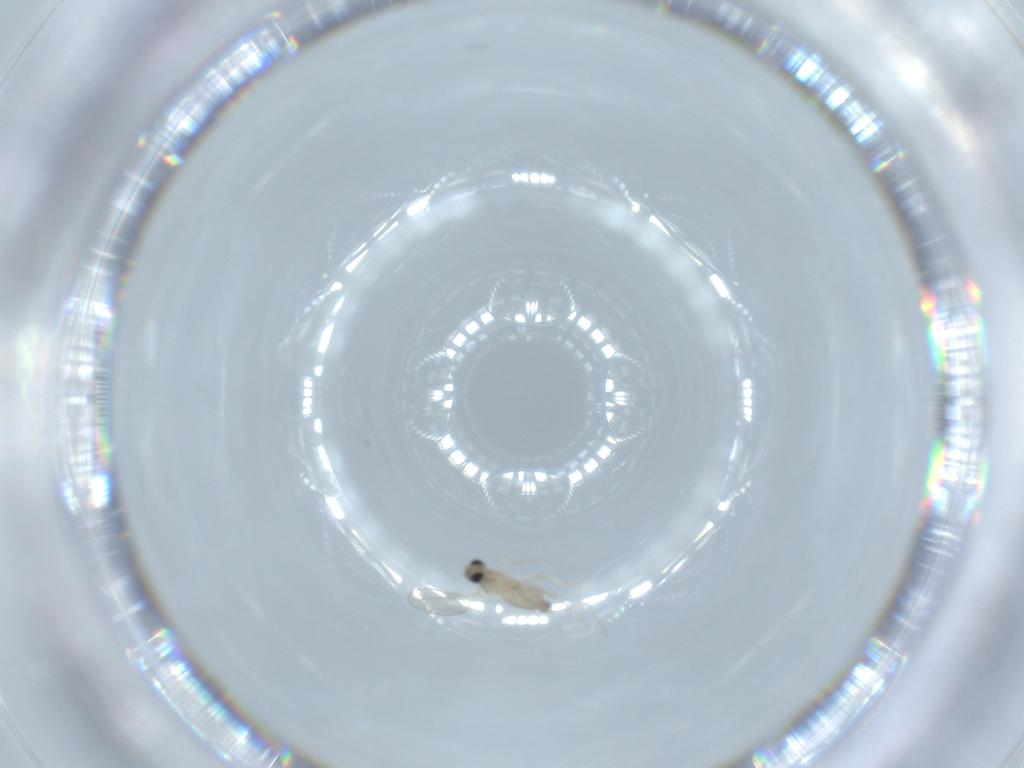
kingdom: Animalia
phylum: Arthropoda
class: Insecta
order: Diptera
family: Cecidomyiidae
